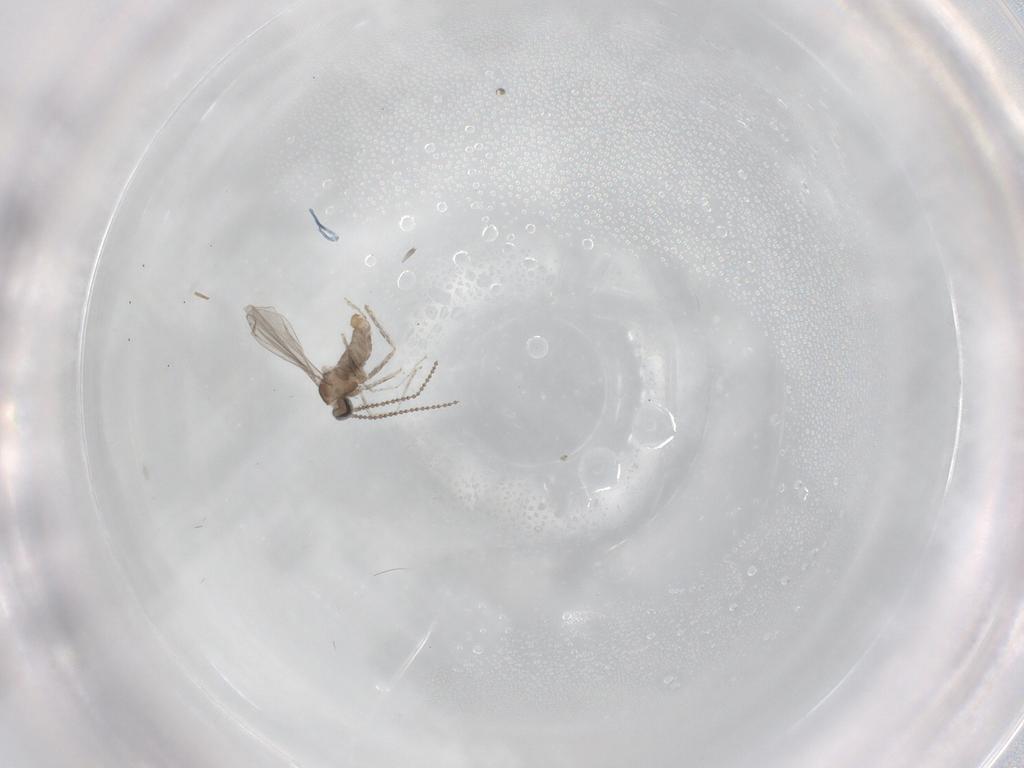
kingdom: Animalia
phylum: Arthropoda
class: Insecta
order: Diptera
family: Cecidomyiidae
